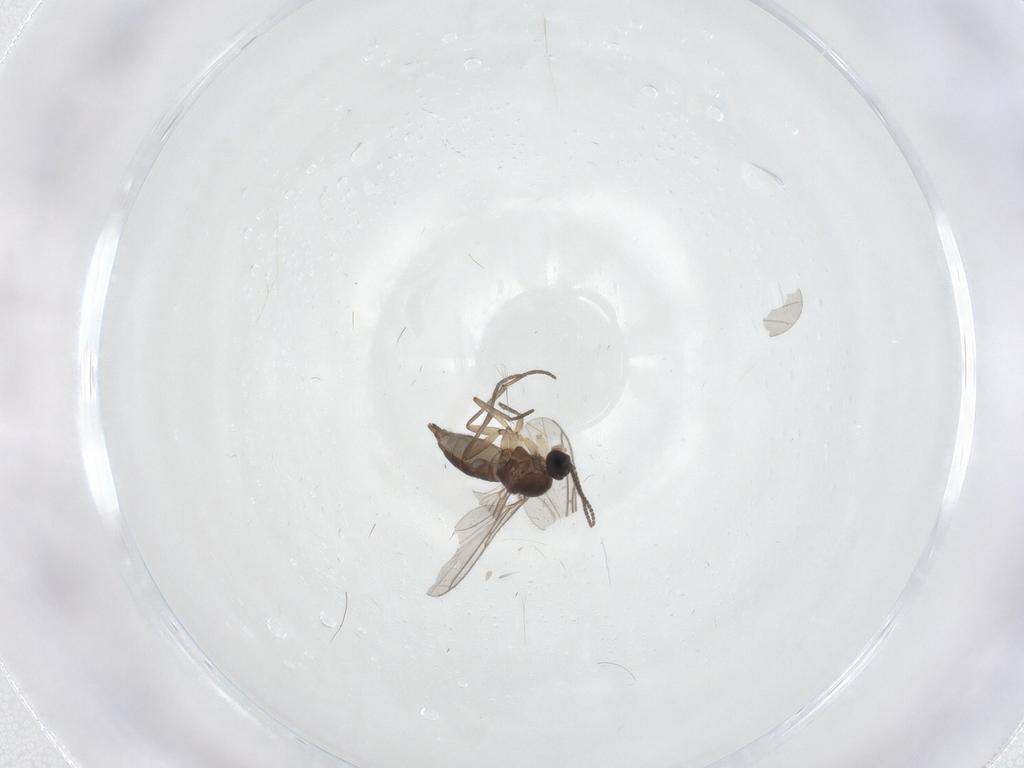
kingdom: Animalia
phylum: Arthropoda
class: Insecta
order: Diptera
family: Sciaridae
